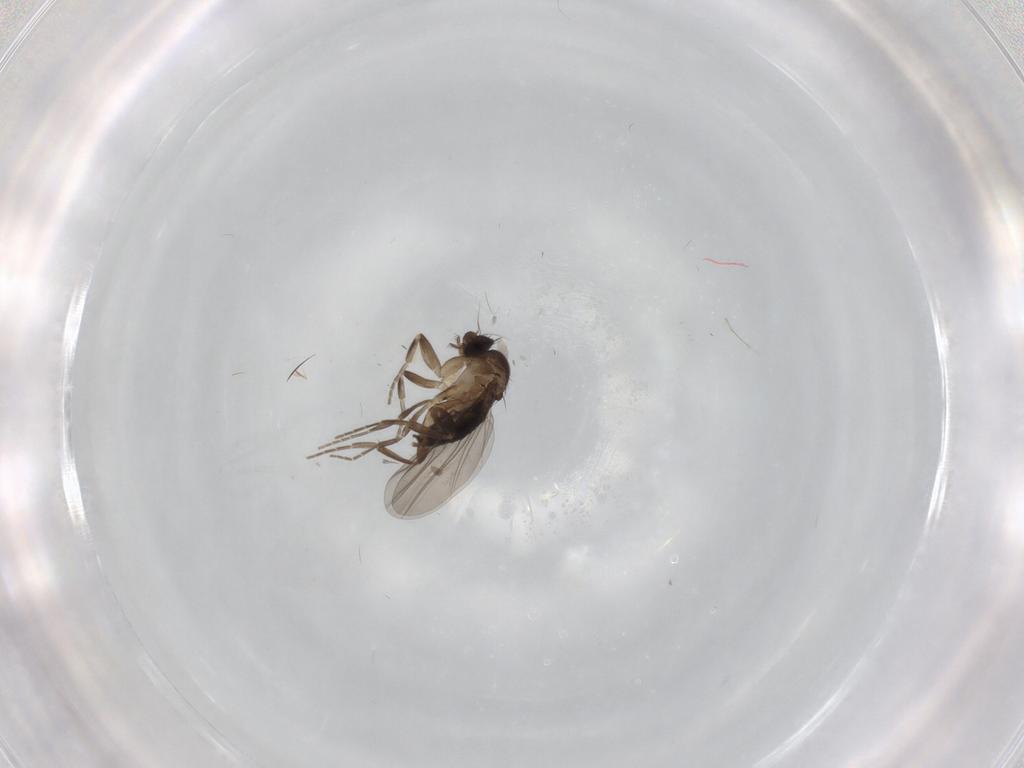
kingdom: Animalia
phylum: Arthropoda
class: Insecta
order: Diptera
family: Phoridae
